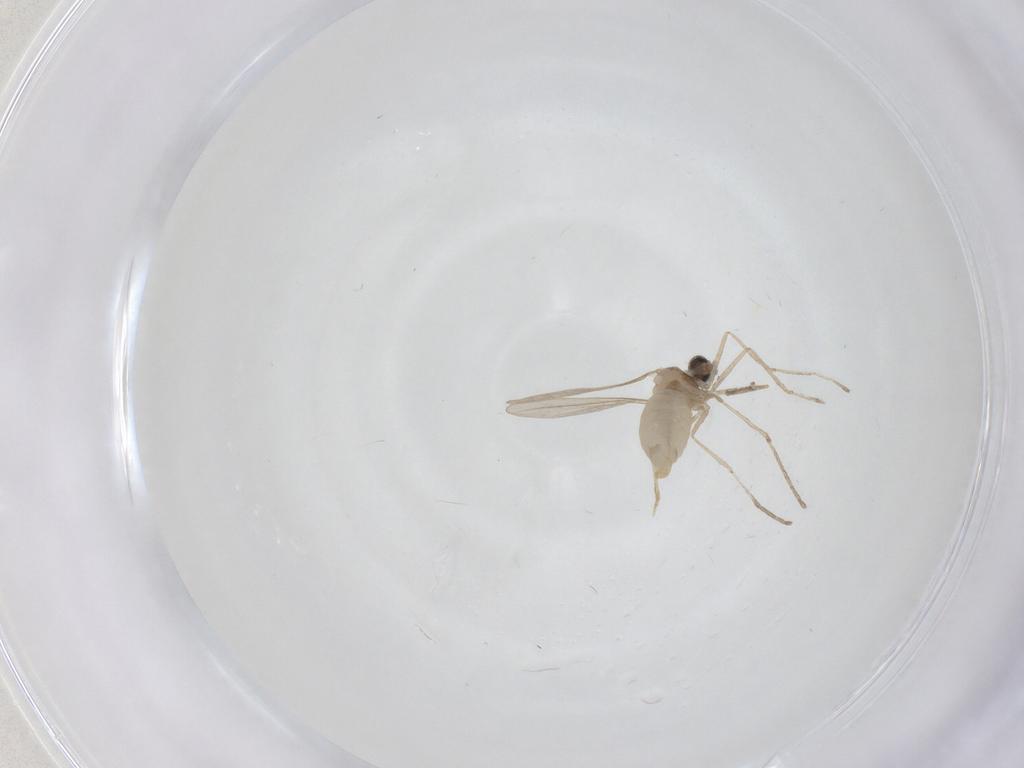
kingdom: Animalia
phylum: Arthropoda
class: Insecta
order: Diptera
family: Cecidomyiidae
